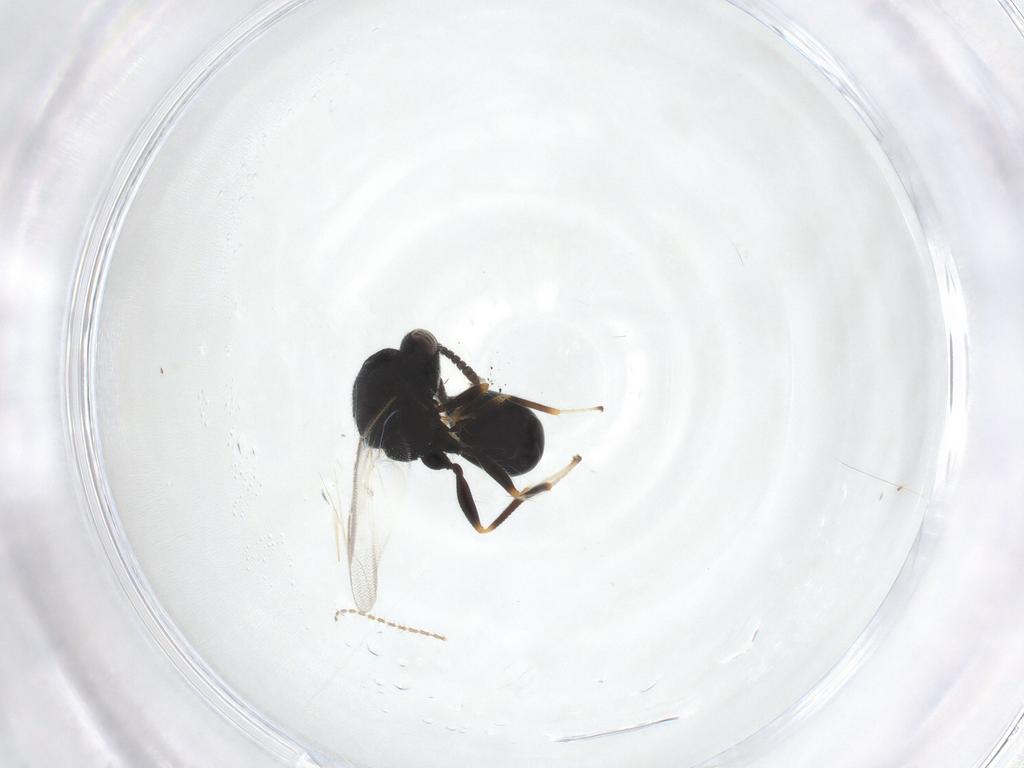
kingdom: Animalia
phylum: Arthropoda
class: Insecta
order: Hymenoptera
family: Eurytomidae
